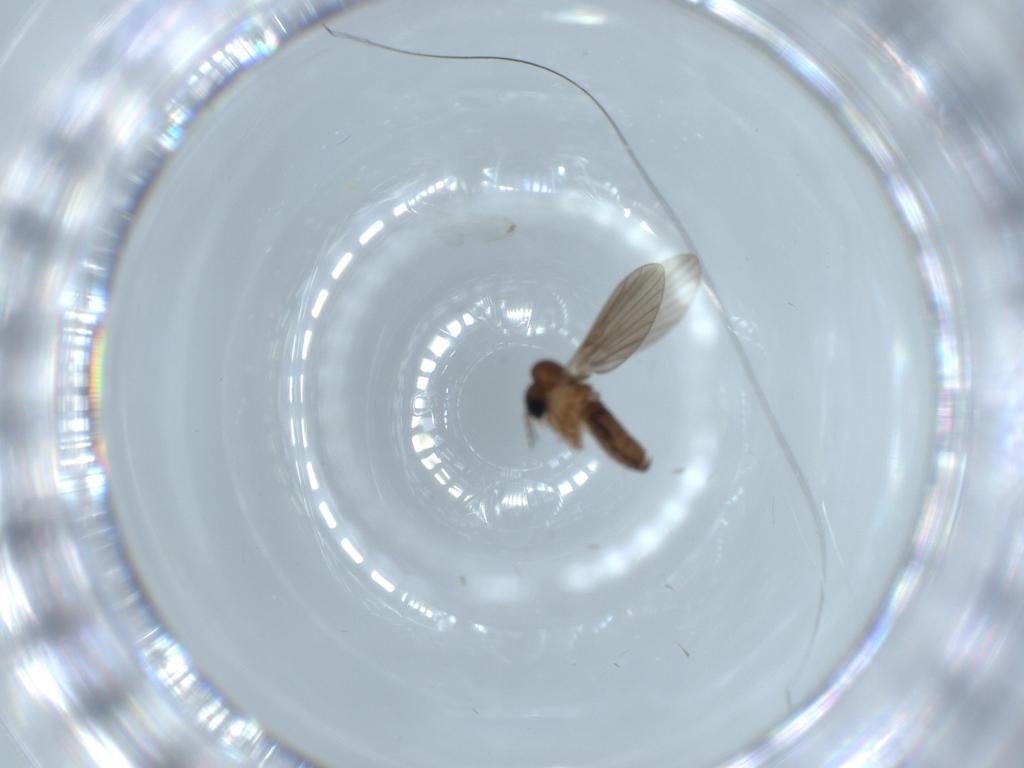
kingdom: Animalia
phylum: Arthropoda
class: Insecta
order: Diptera
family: Psychodidae
